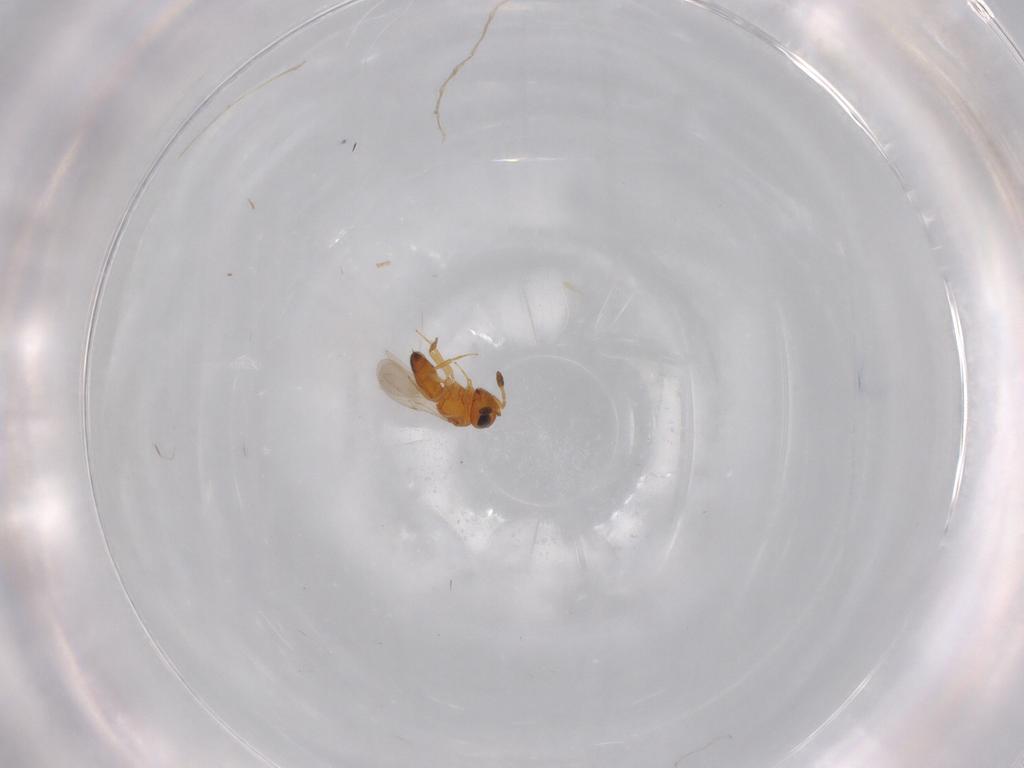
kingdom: Animalia
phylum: Arthropoda
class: Insecta
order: Hymenoptera
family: Scelionidae
